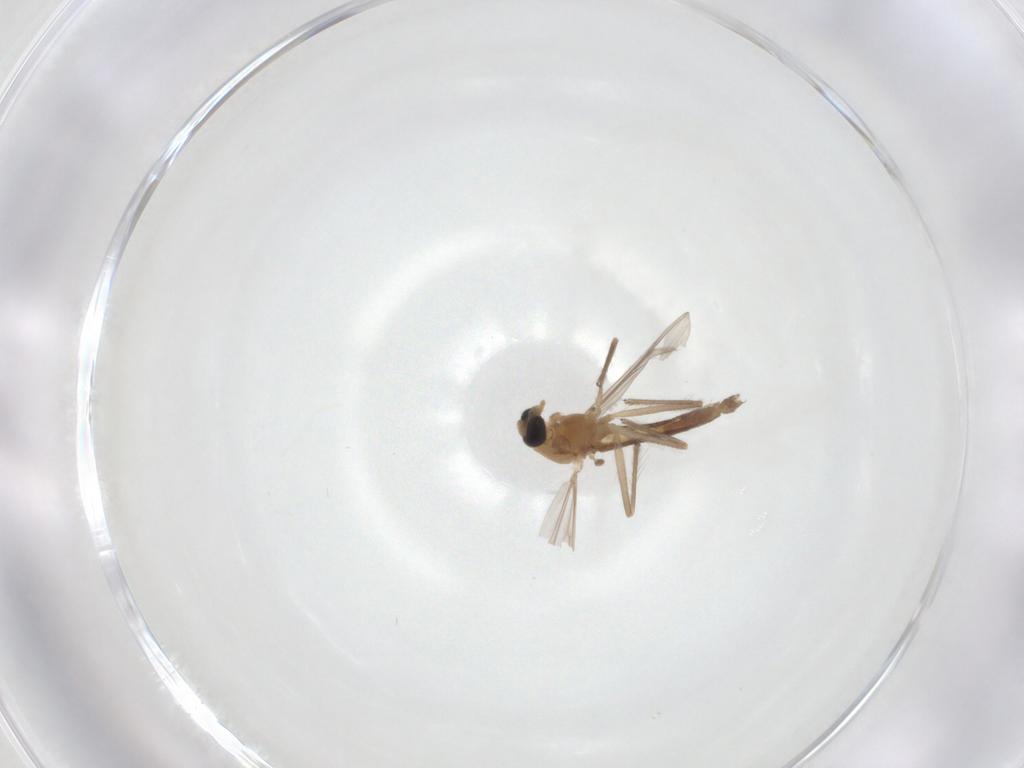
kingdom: Animalia
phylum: Arthropoda
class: Insecta
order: Diptera
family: Chironomidae
